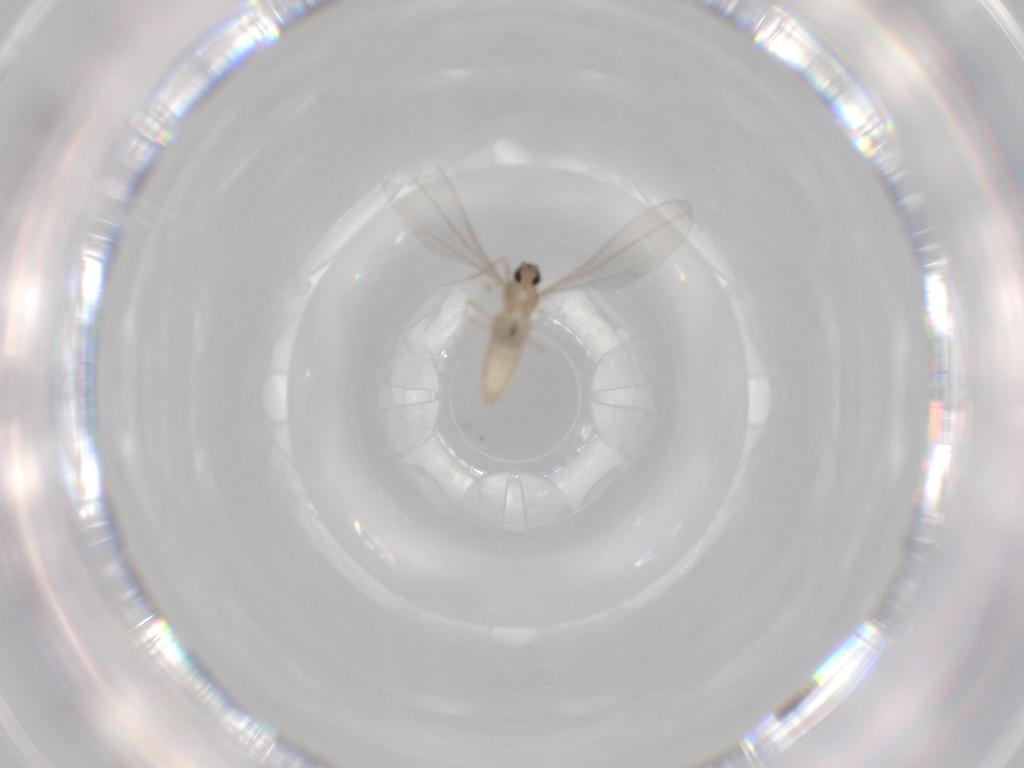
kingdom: Animalia
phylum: Arthropoda
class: Insecta
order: Diptera
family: Cecidomyiidae
